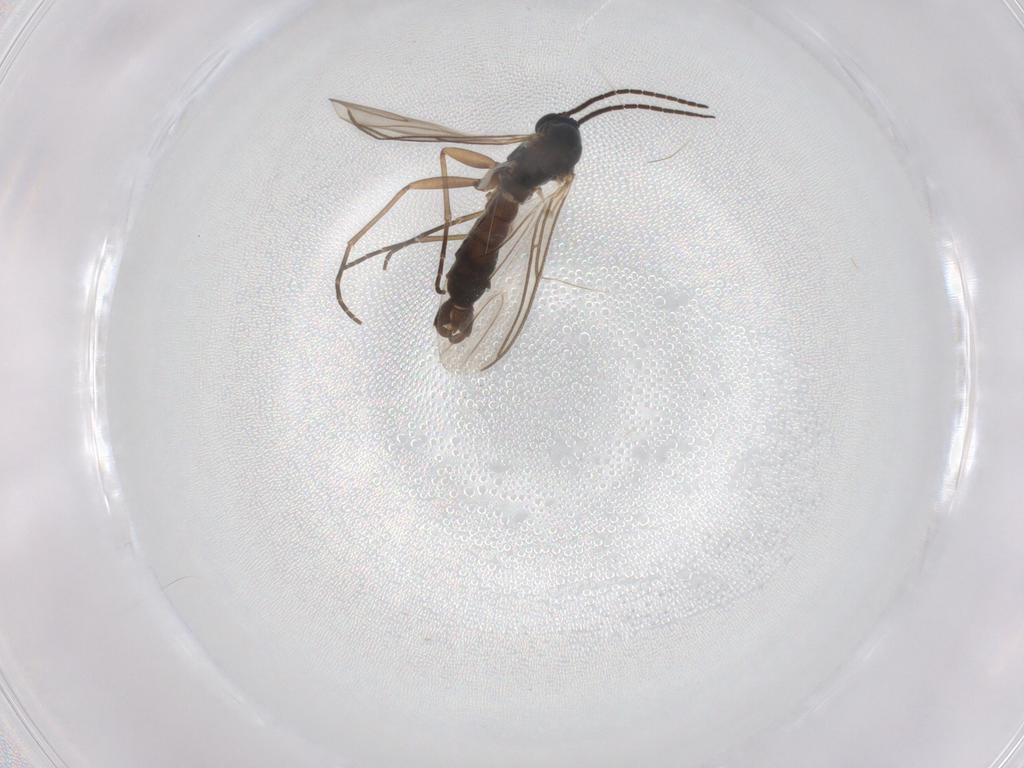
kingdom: Animalia
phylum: Arthropoda
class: Insecta
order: Diptera
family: Sciaridae
